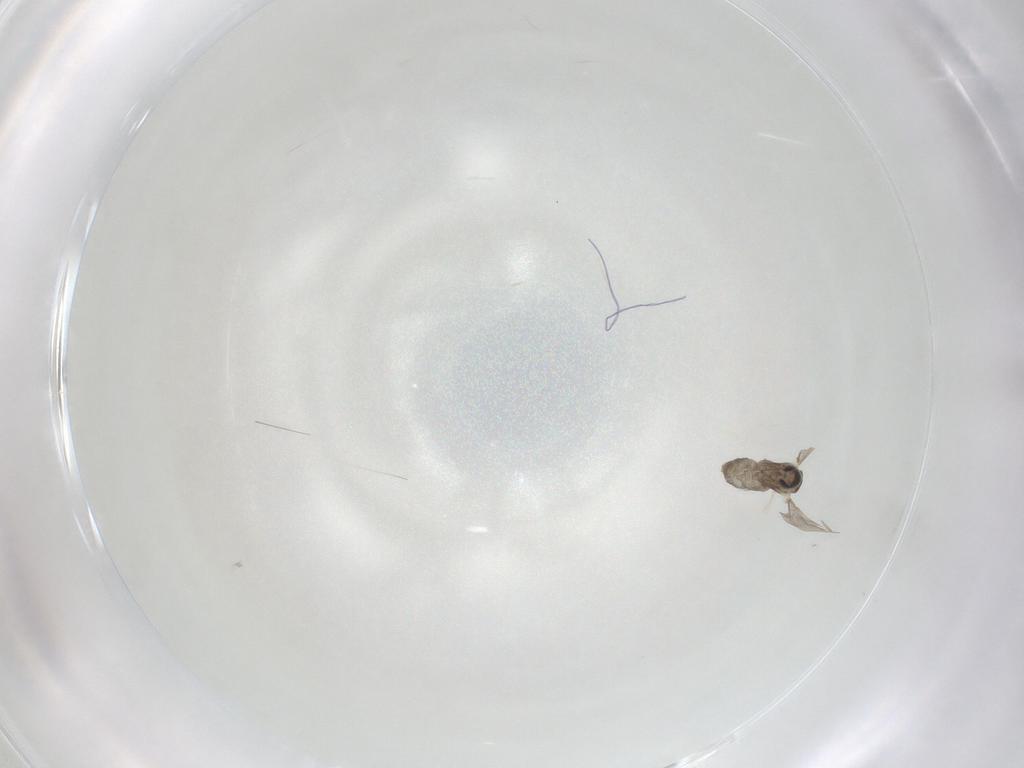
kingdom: Animalia
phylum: Arthropoda
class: Insecta
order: Diptera
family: Cecidomyiidae
